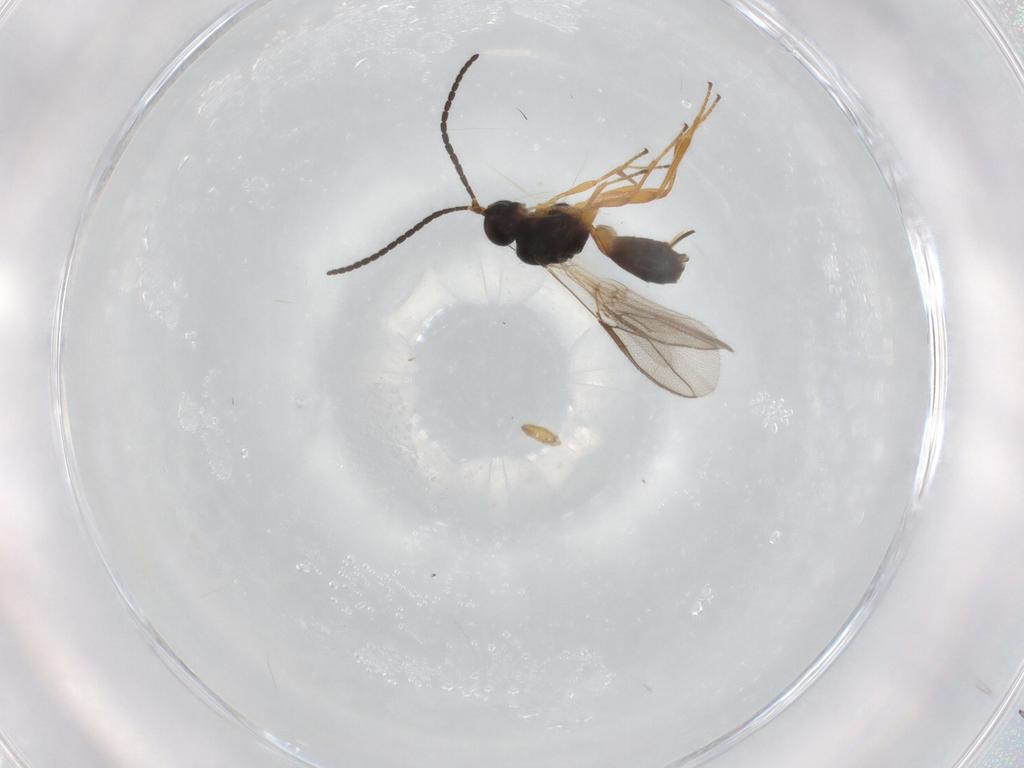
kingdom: Animalia
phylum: Arthropoda
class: Insecta
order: Hymenoptera
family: Braconidae
